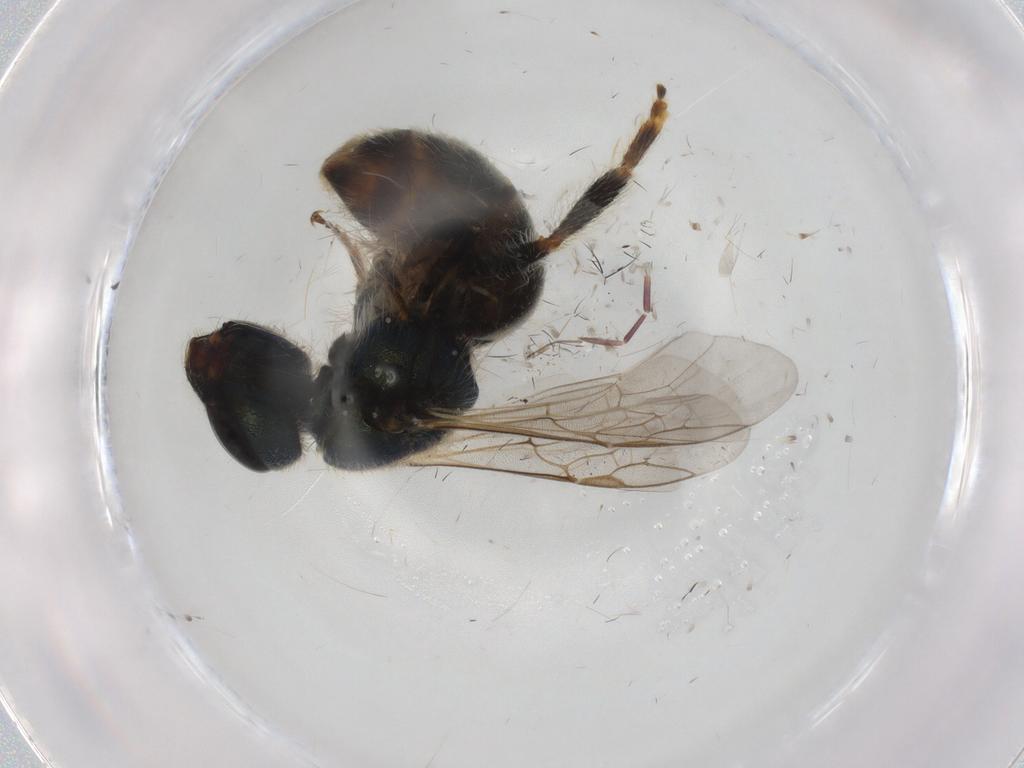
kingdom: Animalia
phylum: Arthropoda
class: Insecta
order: Hymenoptera
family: Halictidae
